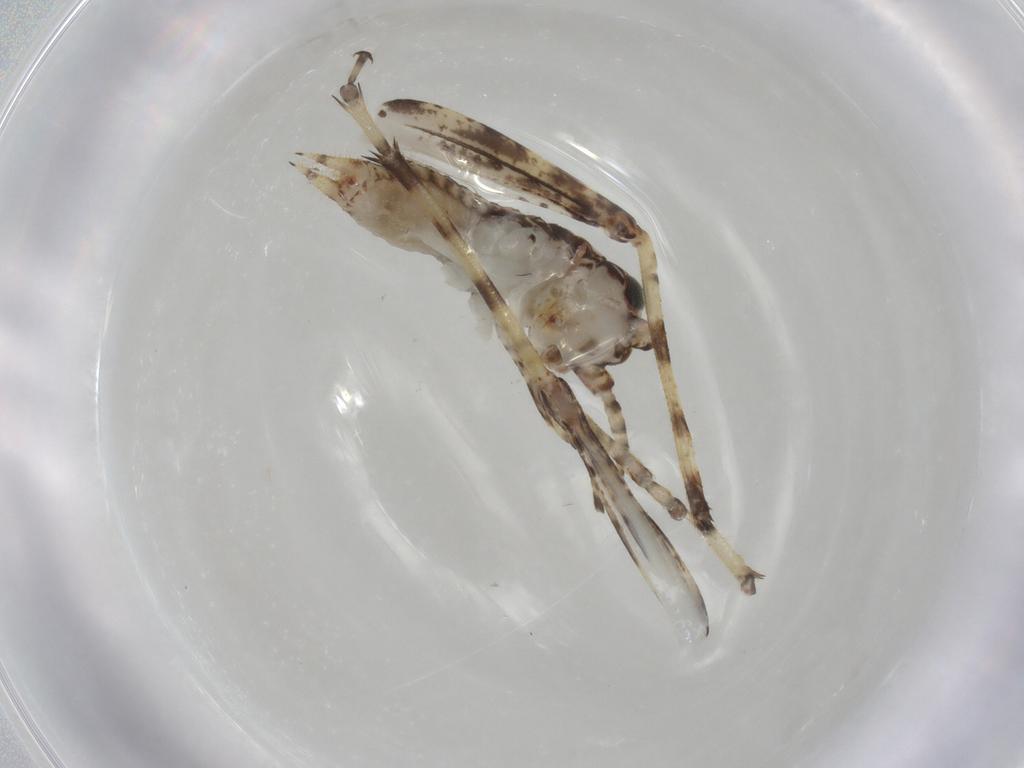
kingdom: Animalia
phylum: Arthropoda
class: Insecta
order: Orthoptera
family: Gryllidae
